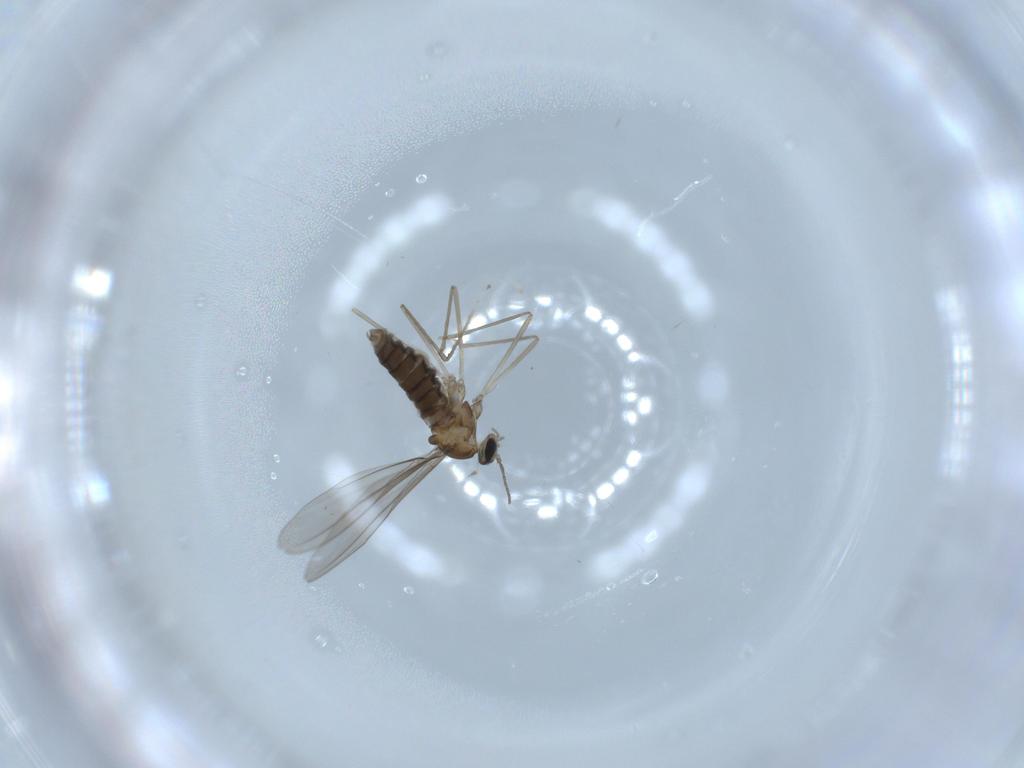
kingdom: Animalia
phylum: Arthropoda
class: Insecta
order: Diptera
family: Cecidomyiidae
